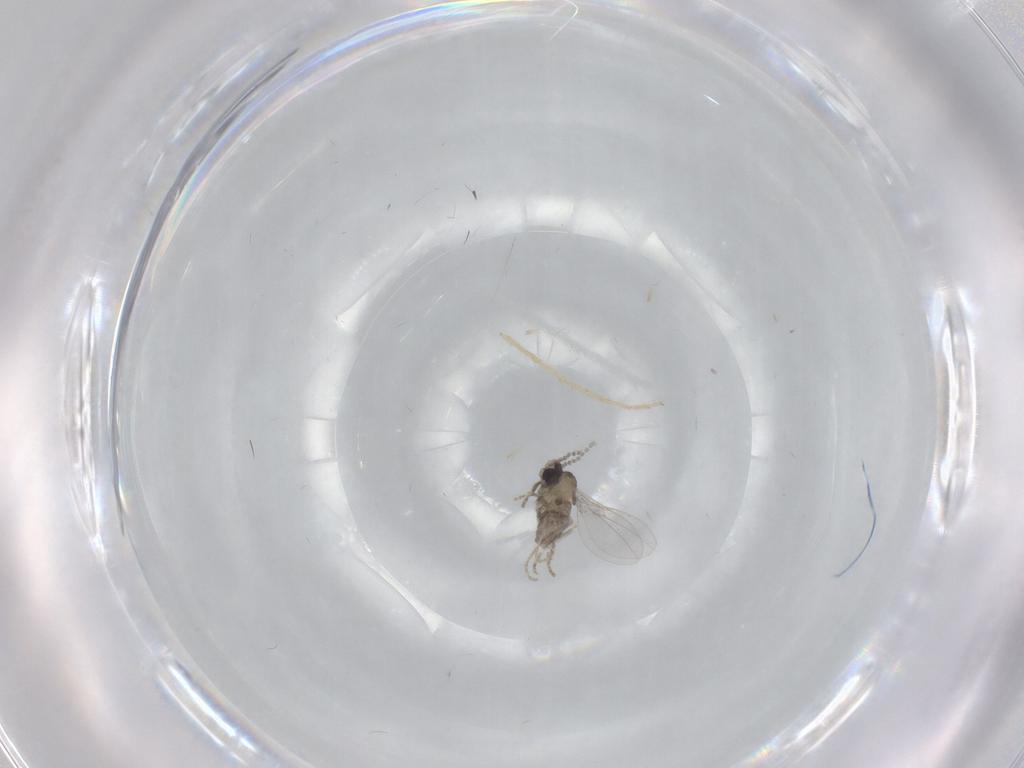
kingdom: Animalia
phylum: Arthropoda
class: Insecta
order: Diptera
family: Cecidomyiidae
